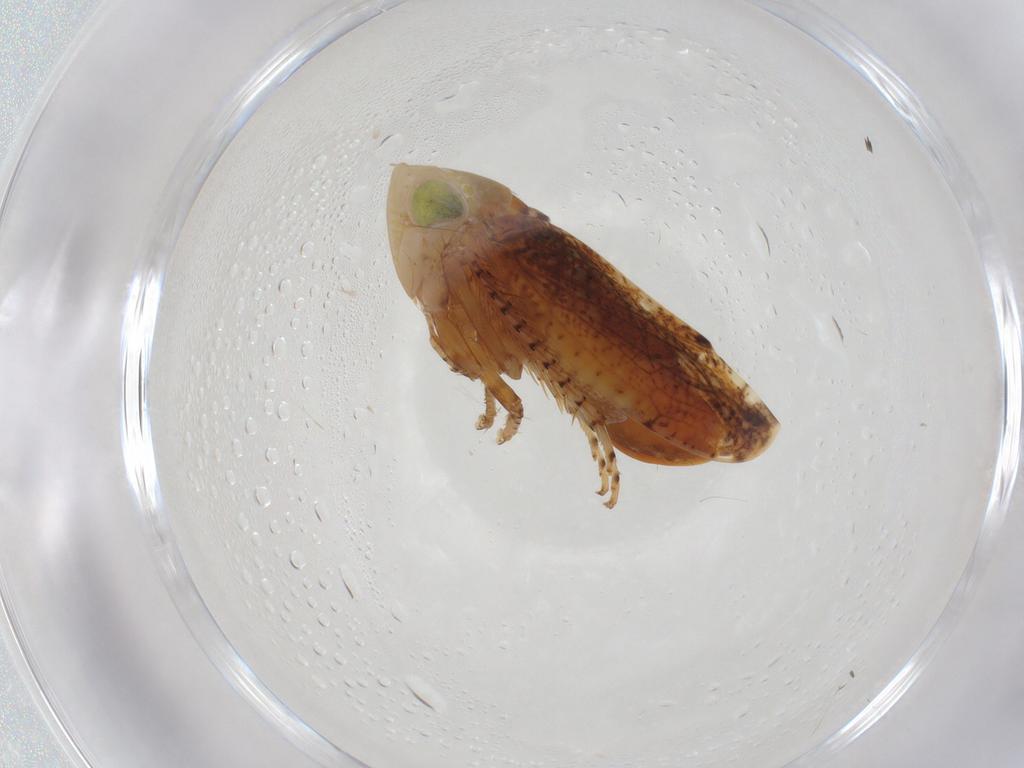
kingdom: Animalia
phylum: Arthropoda
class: Insecta
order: Hemiptera
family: Cicadellidae
